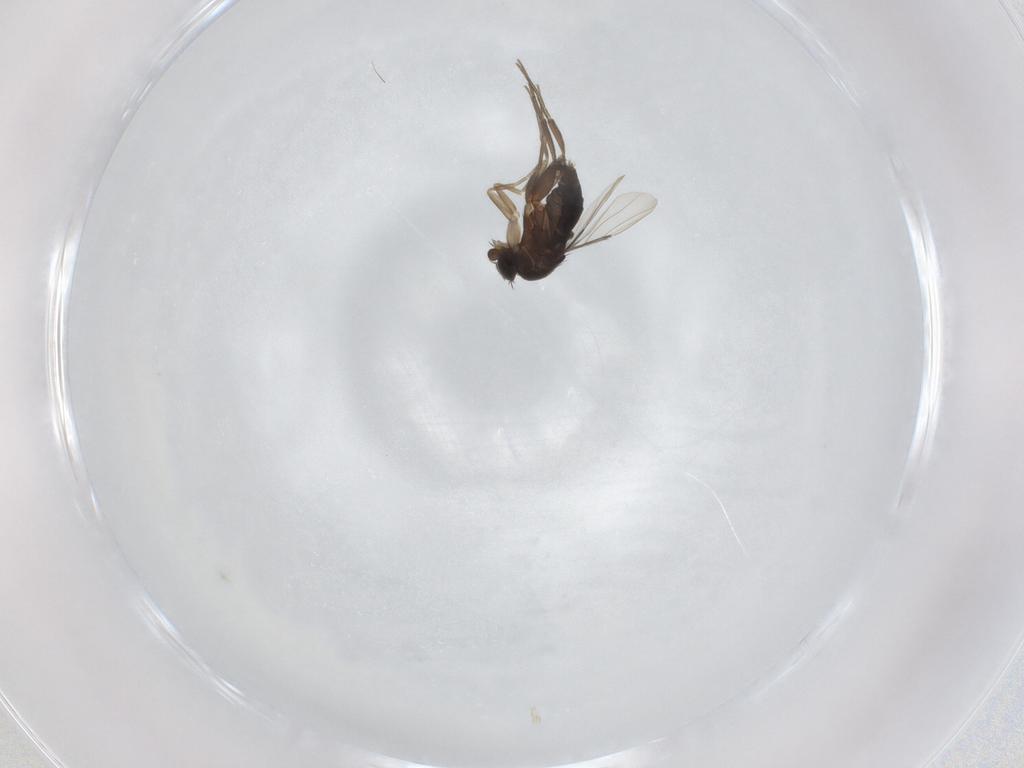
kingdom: Animalia
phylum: Arthropoda
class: Insecta
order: Diptera
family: Phoridae
